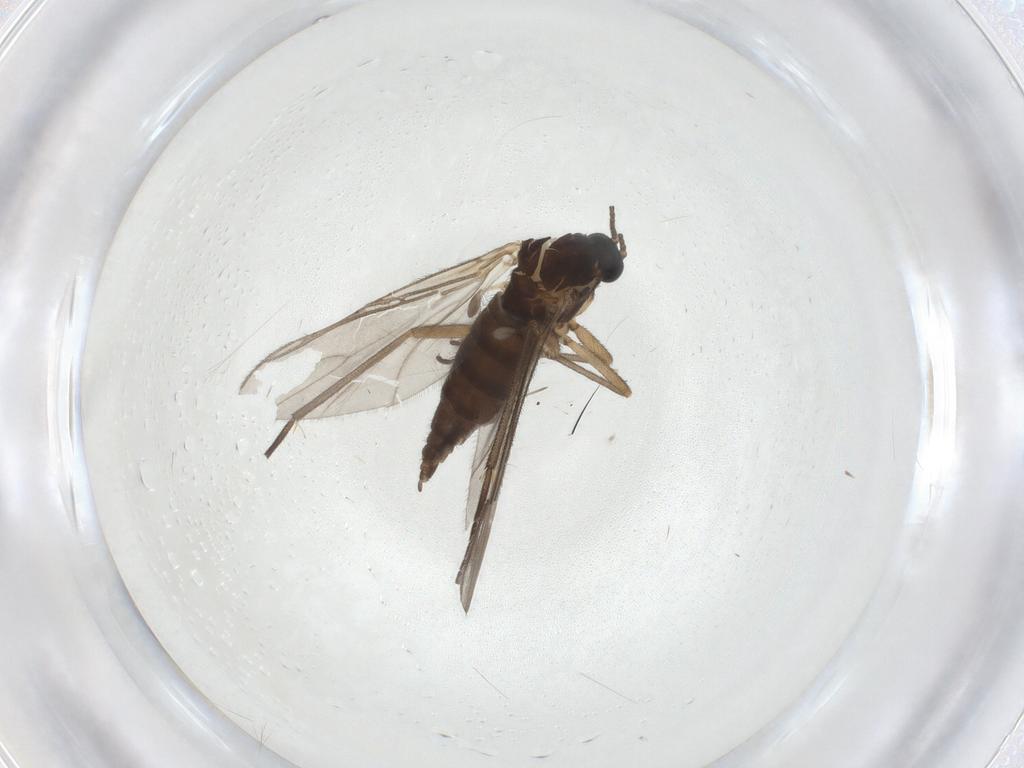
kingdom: Animalia
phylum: Arthropoda
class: Insecta
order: Diptera
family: Sciaridae
